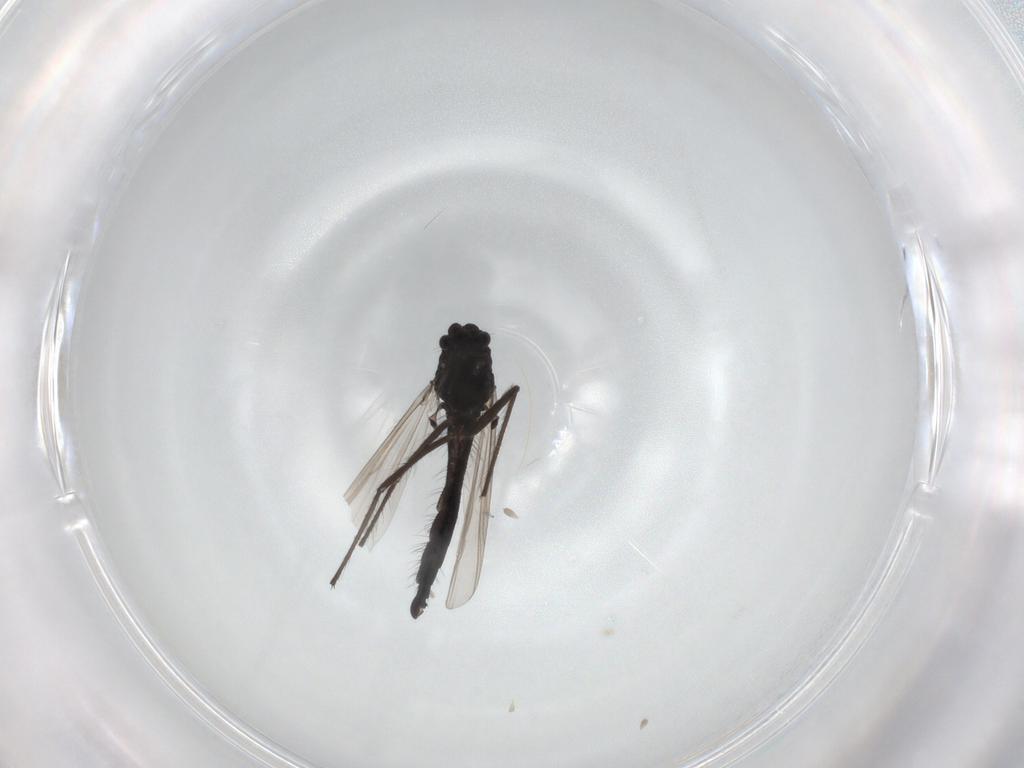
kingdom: Animalia
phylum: Arthropoda
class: Insecta
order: Diptera
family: Chironomidae
